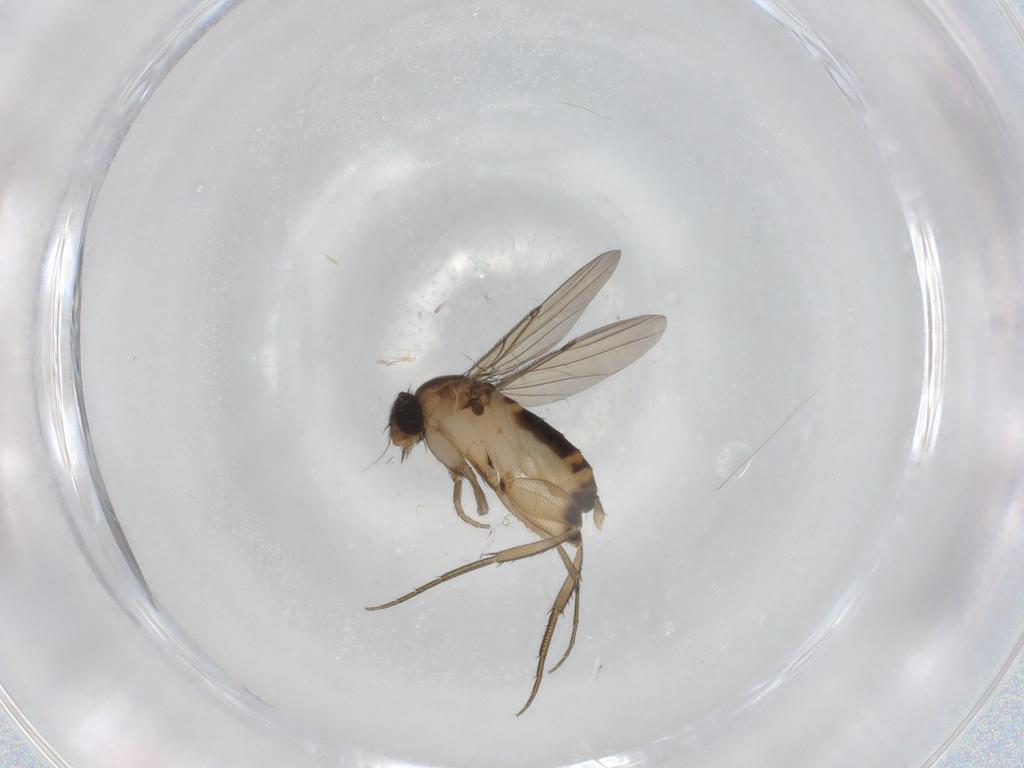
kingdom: Animalia
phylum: Arthropoda
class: Insecta
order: Diptera
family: Phoridae
